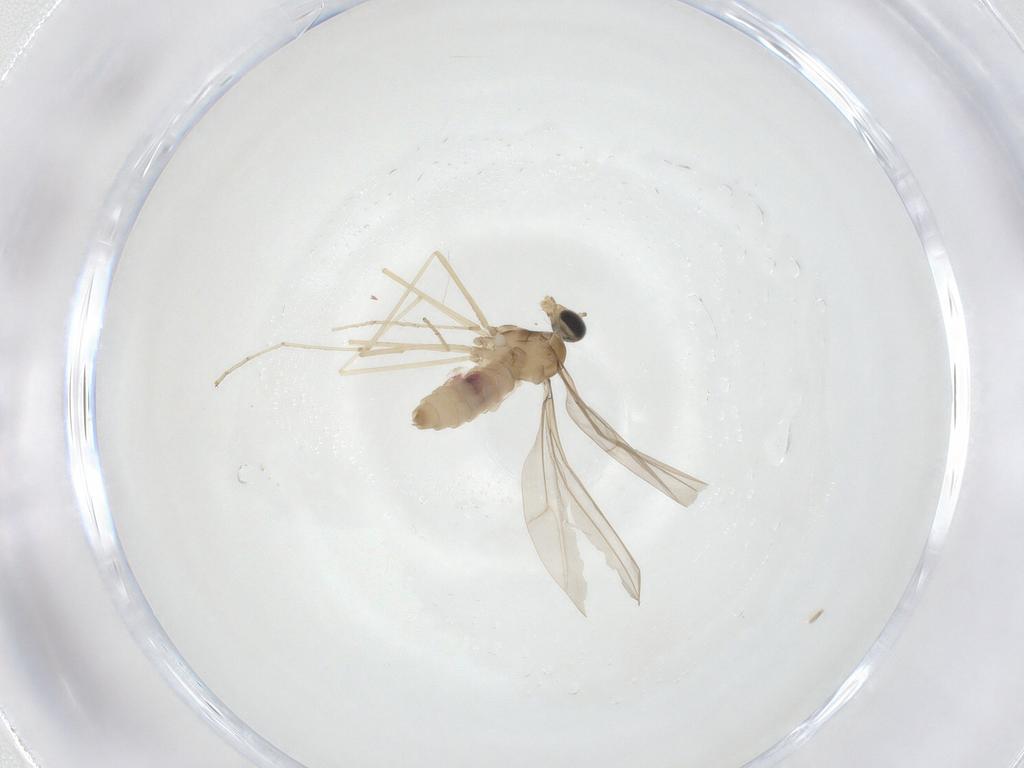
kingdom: Animalia
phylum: Arthropoda
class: Insecta
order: Diptera
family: Cecidomyiidae
